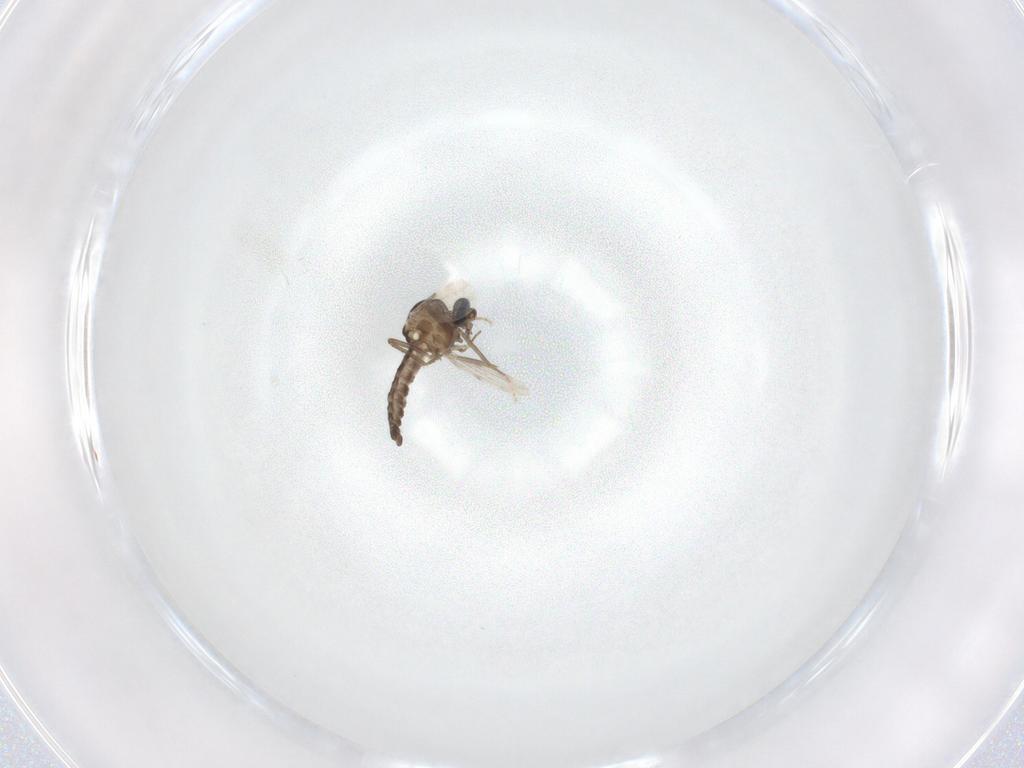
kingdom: Animalia
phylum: Arthropoda
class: Insecta
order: Diptera
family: Ceratopogonidae
